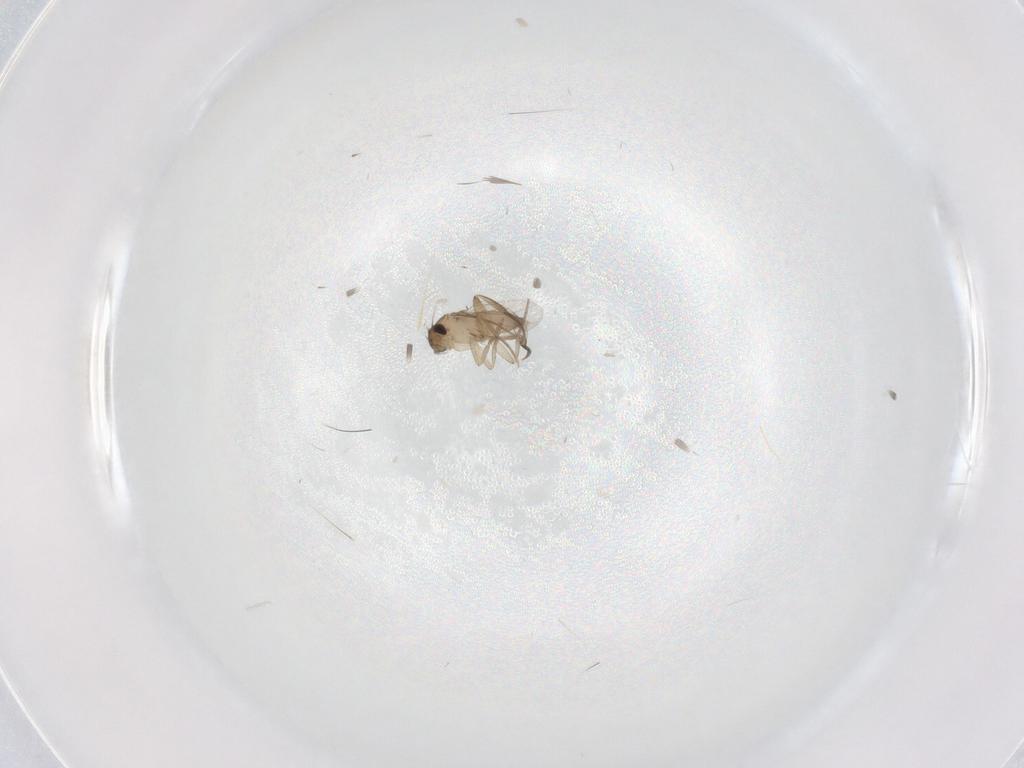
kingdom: Animalia
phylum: Arthropoda
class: Insecta
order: Diptera
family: Phoridae
